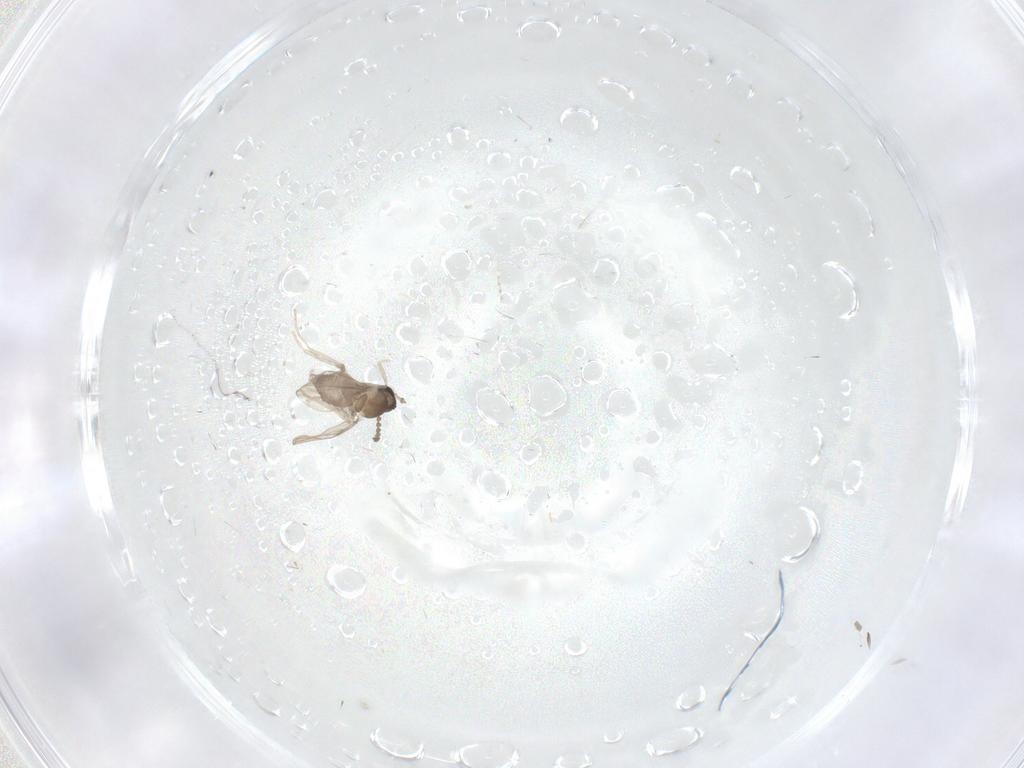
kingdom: Animalia
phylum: Arthropoda
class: Insecta
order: Diptera
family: Cecidomyiidae
